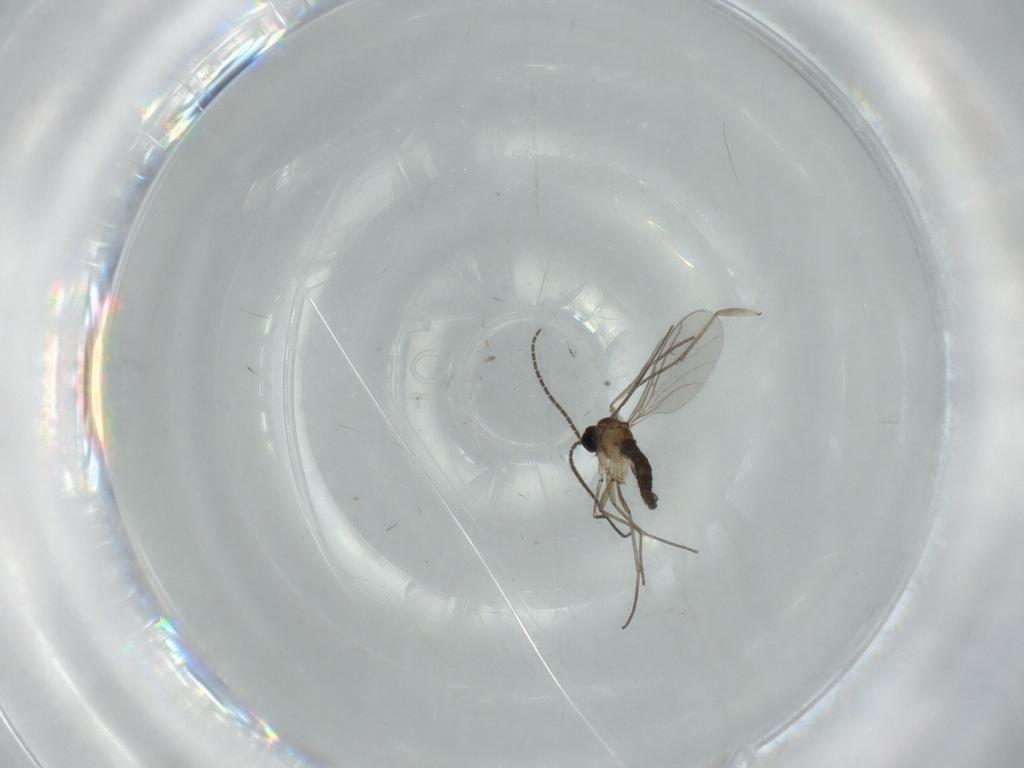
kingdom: Animalia
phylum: Arthropoda
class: Insecta
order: Diptera
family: Sciaridae
